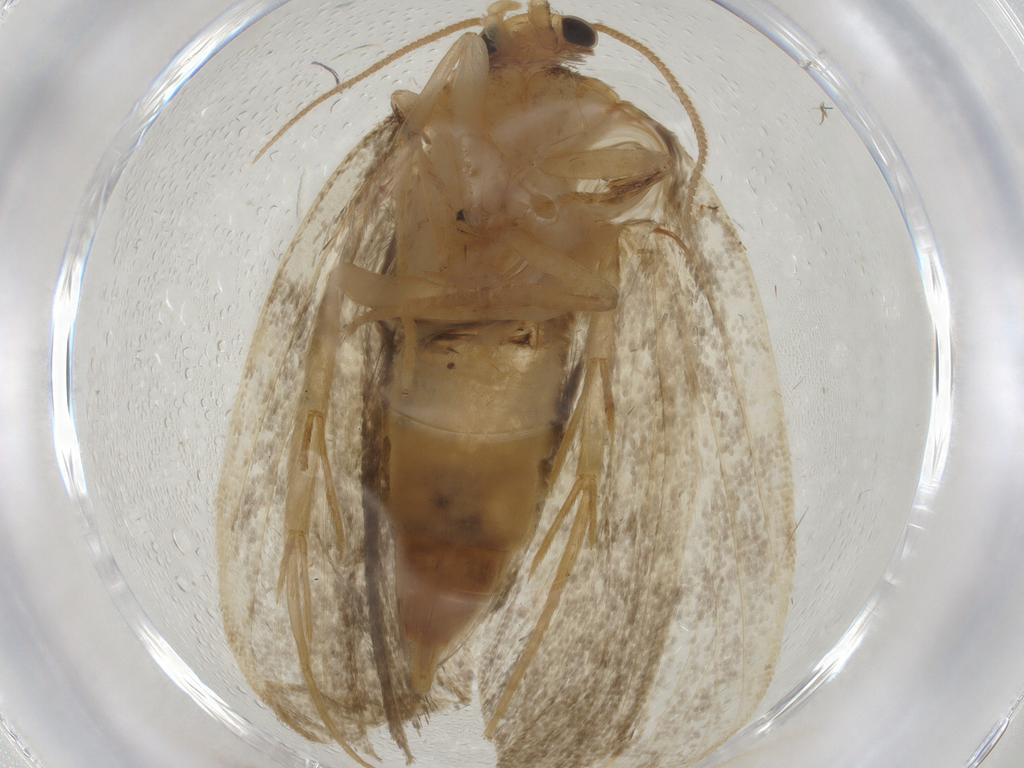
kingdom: Animalia
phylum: Arthropoda
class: Insecta
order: Lepidoptera
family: Psychidae
